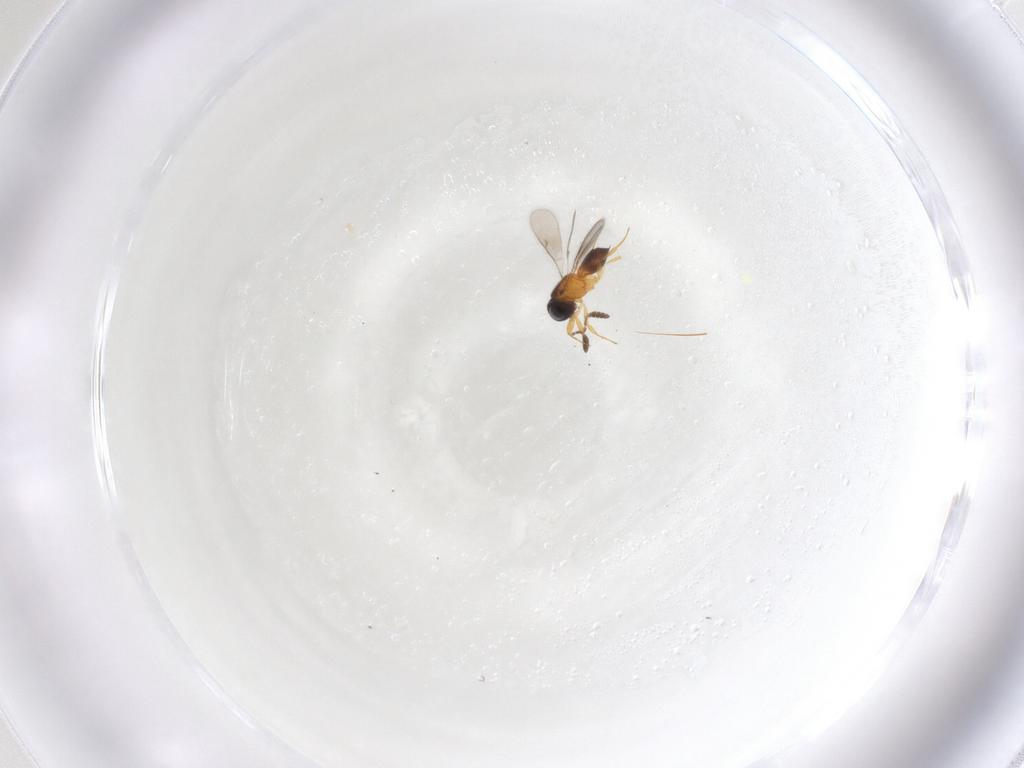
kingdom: Animalia
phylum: Arthropoda
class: Insecta
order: Hymenoptera
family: Scelionidae
